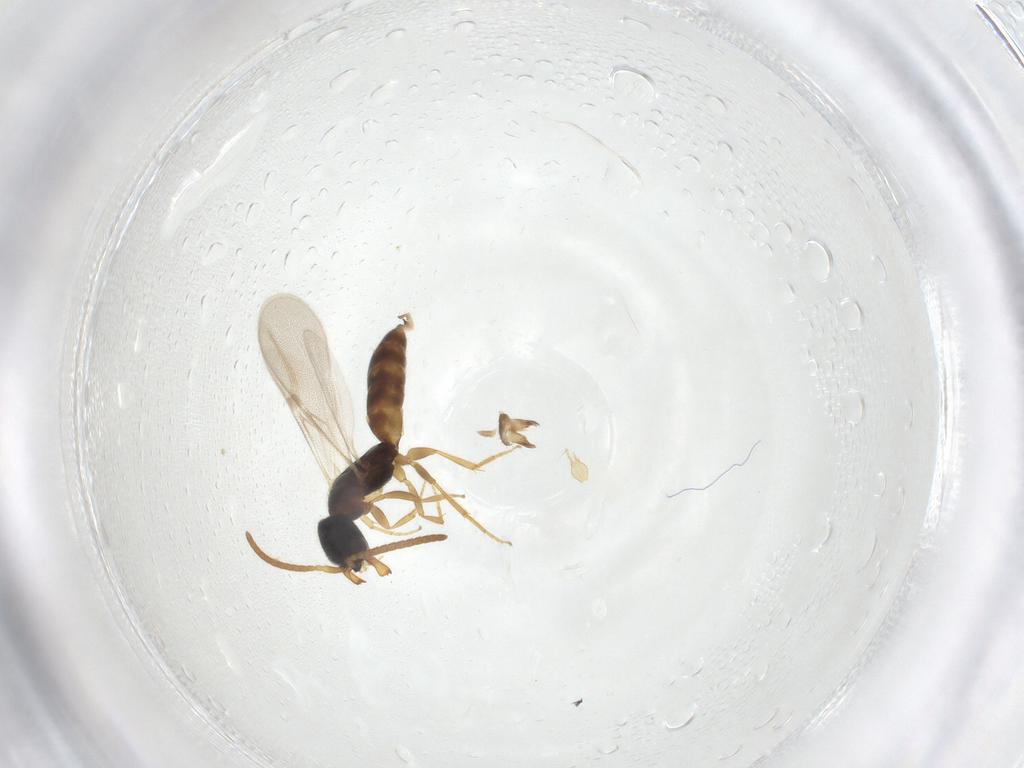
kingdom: Animalia
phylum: Arthropoda
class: Insecta
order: Hymenoptera
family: Bethylidae
